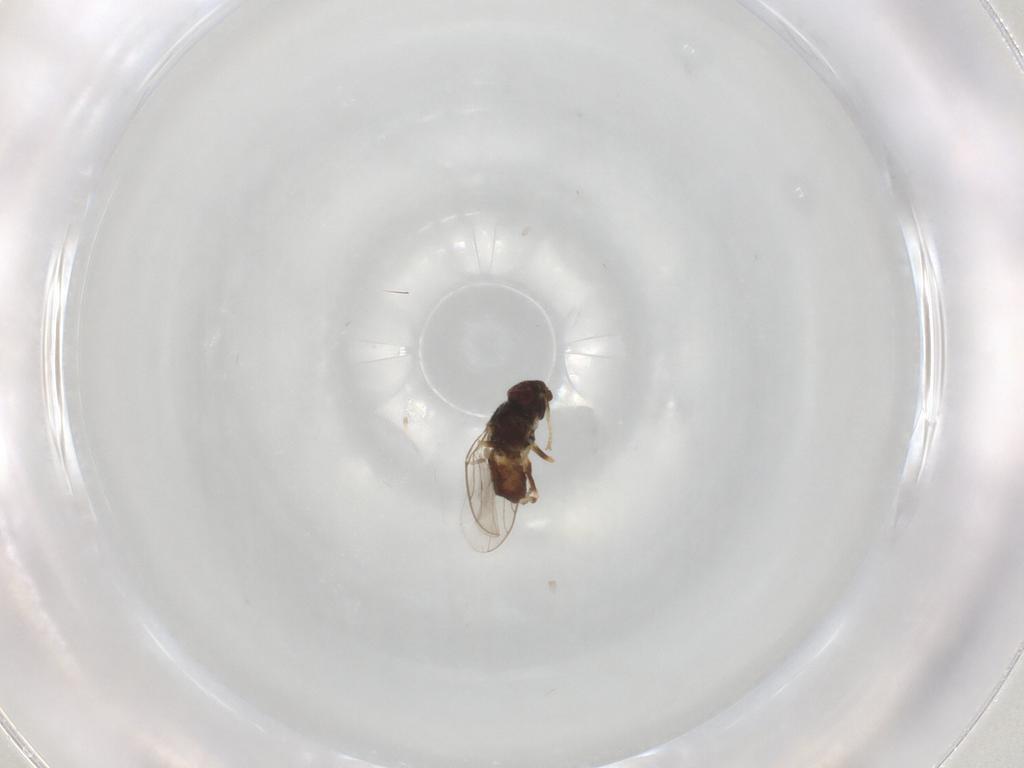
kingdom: Animalia
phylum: Arthropoda
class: Insecta
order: Diptera
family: Chloropidae
